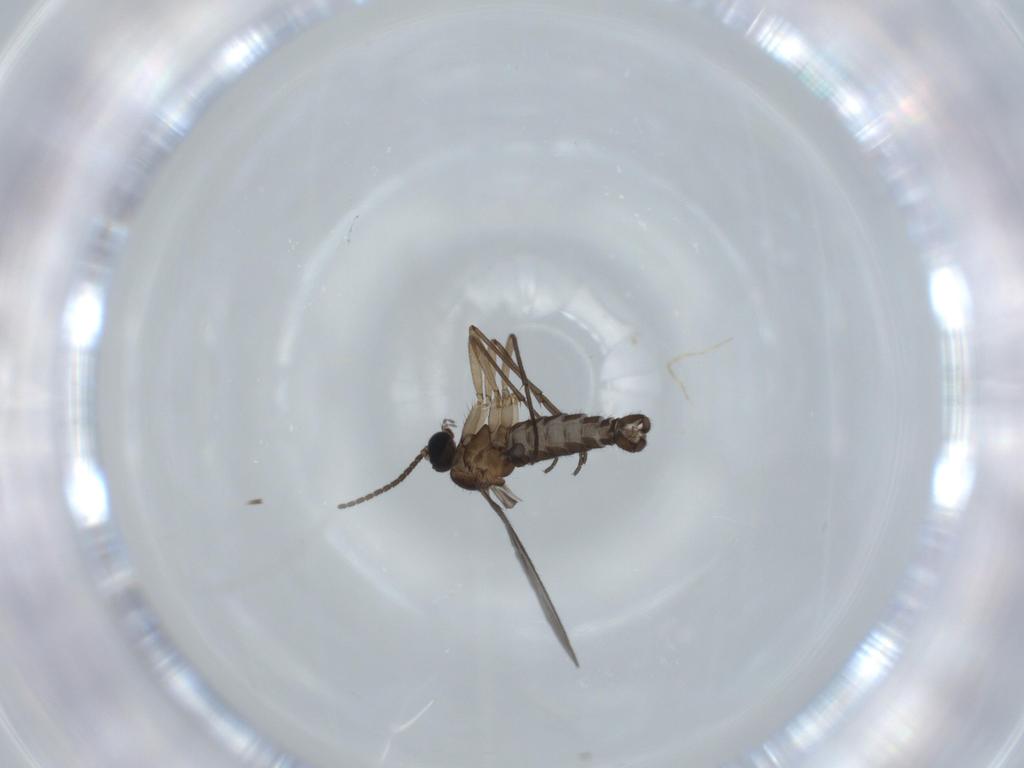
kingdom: Animalia
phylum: Arthropoda
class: Insecta
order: Diptera
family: Sciaridae
